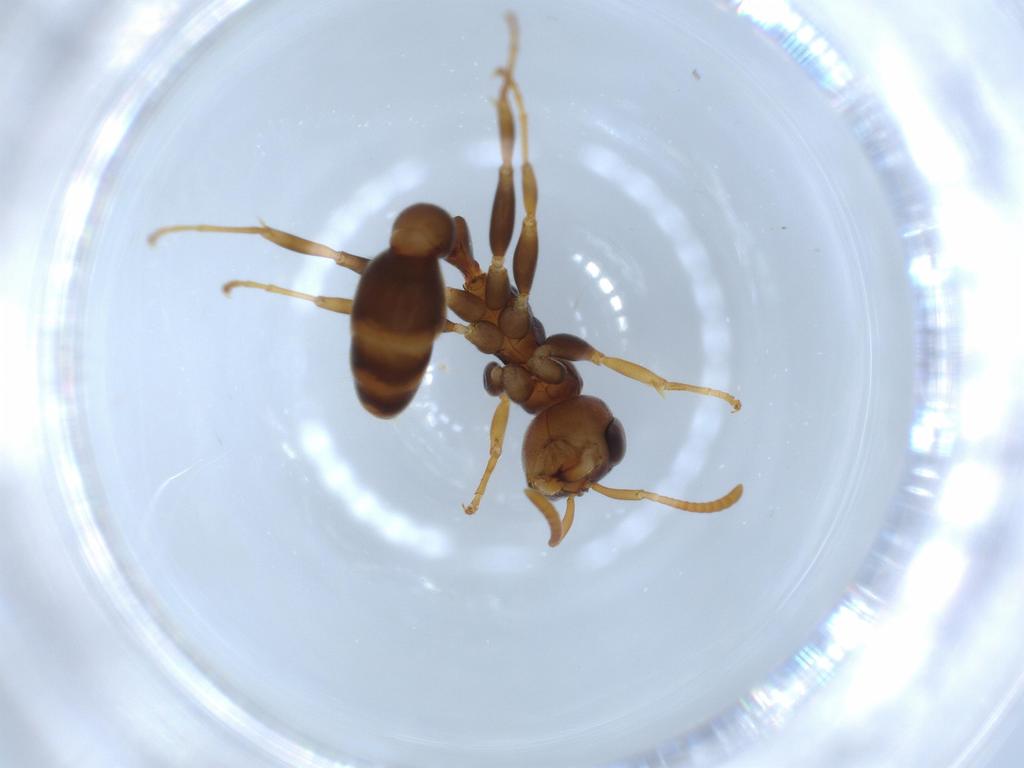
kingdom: Animalia
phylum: Arthropoda
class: Insecta
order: Hymenoptera
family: Formicidae
